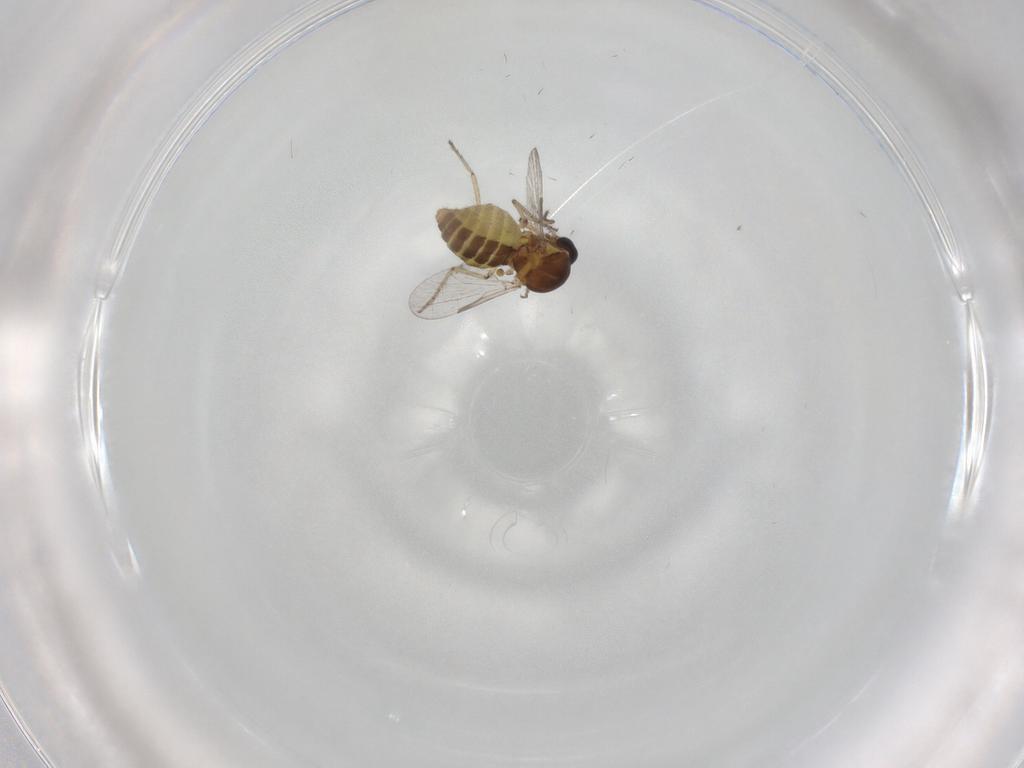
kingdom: Animalia
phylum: Arthropoda
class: Insecta
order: Diptera
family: Ceratopogonidae
